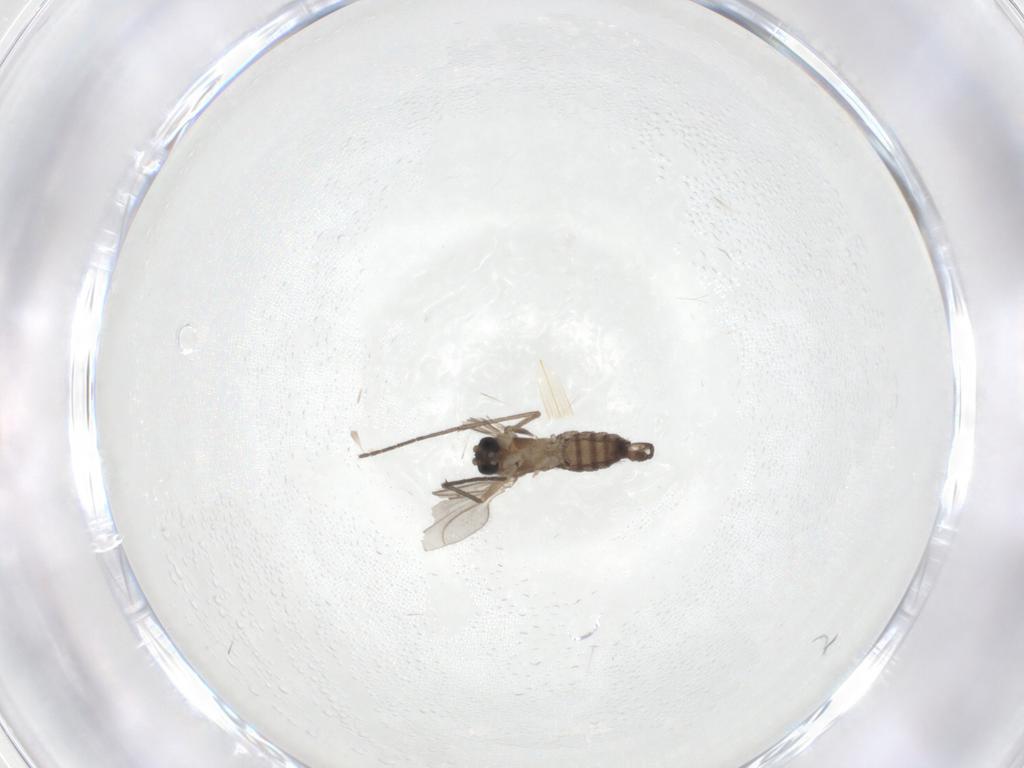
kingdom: Animalia
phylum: Arthropoda
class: Insecta
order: Diptera
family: Sciaridae
